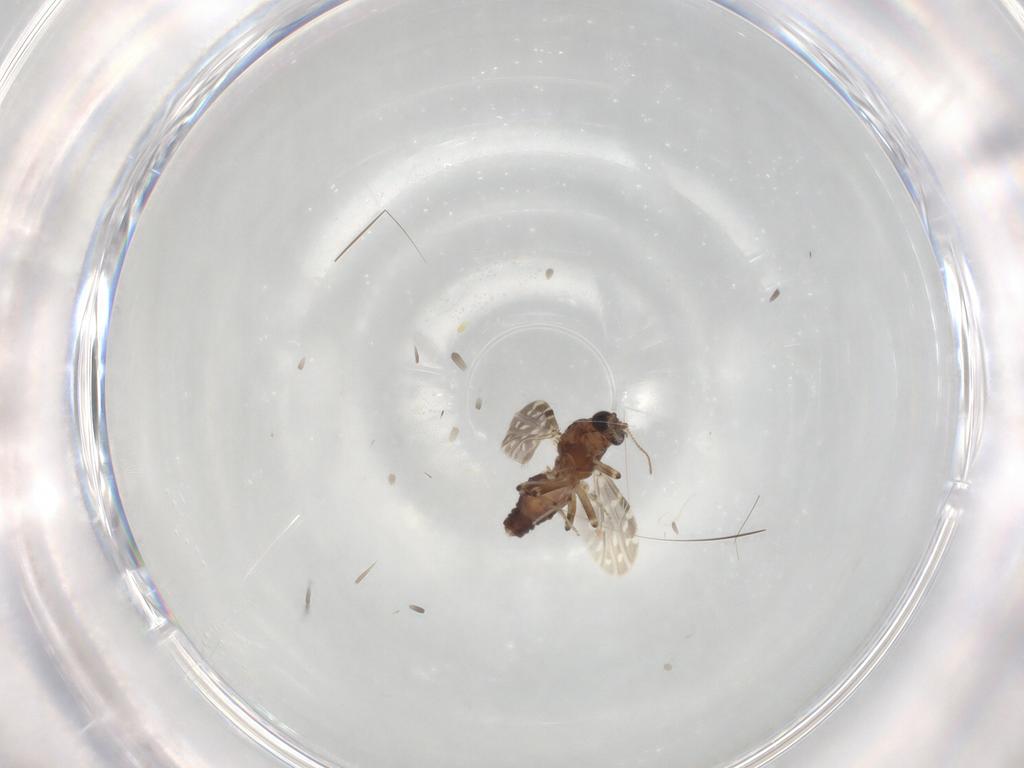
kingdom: Animalia
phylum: Arthropoda
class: Insecta
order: Diptera
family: Ceratopogonidae
